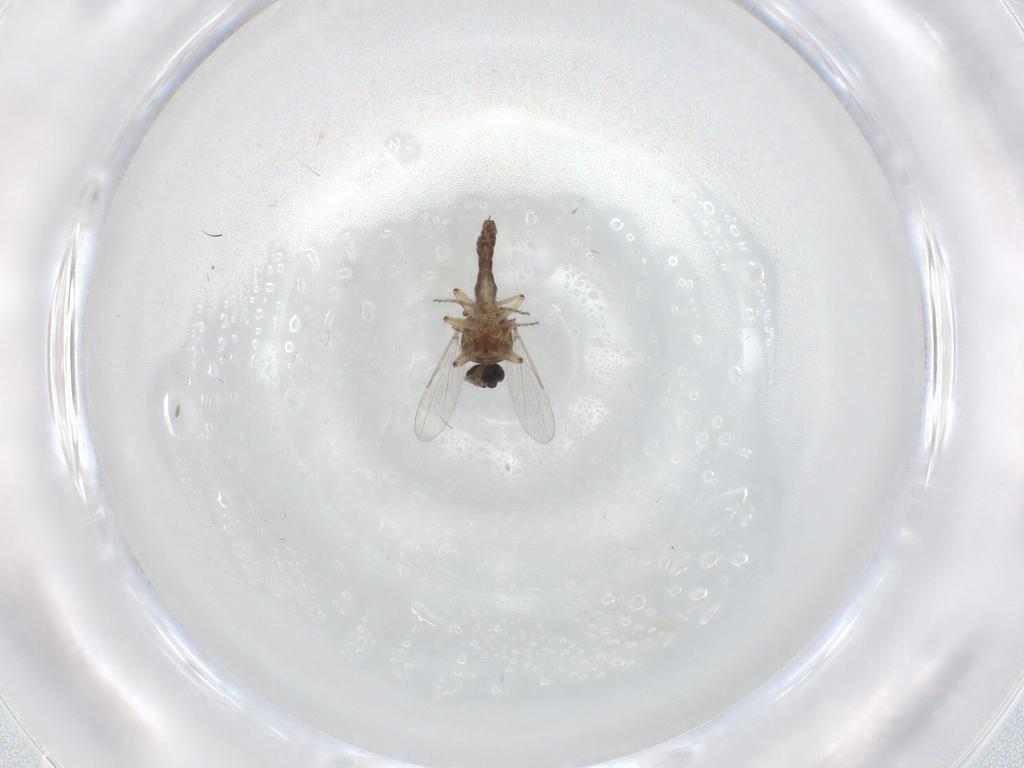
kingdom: Animalia
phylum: Arthropoda
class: Insecta
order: Diptera
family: Ceratopogonidae
